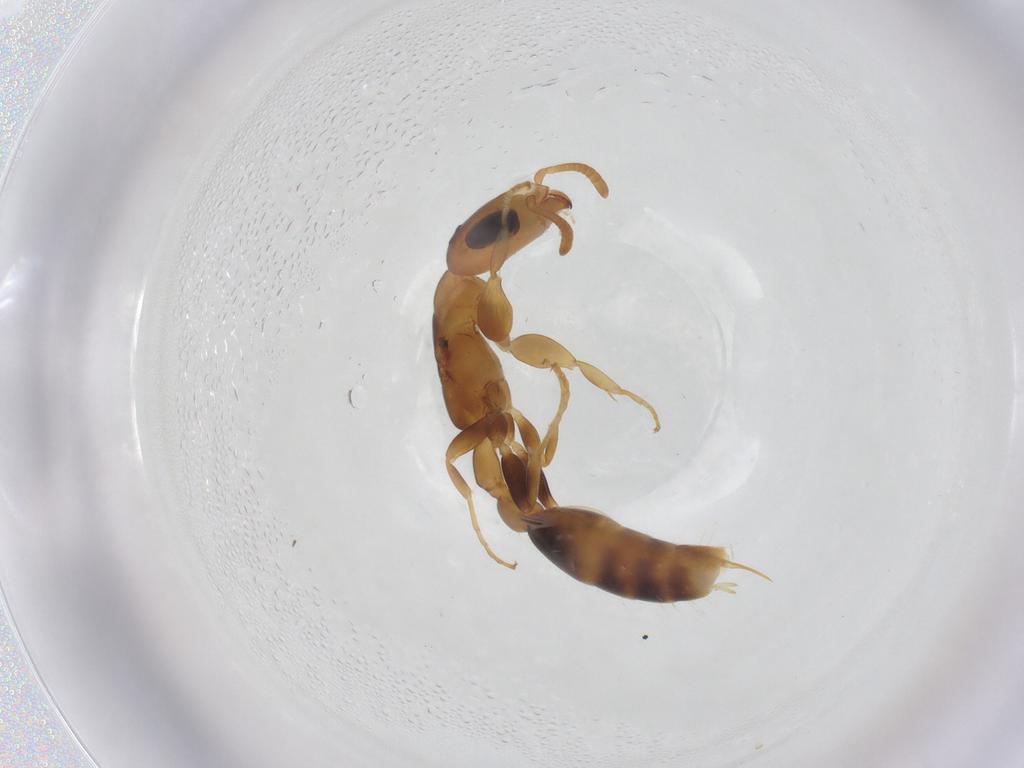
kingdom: Animalia
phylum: Arthropoda
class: Insecta
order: Hymenoptera
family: Formicidae
